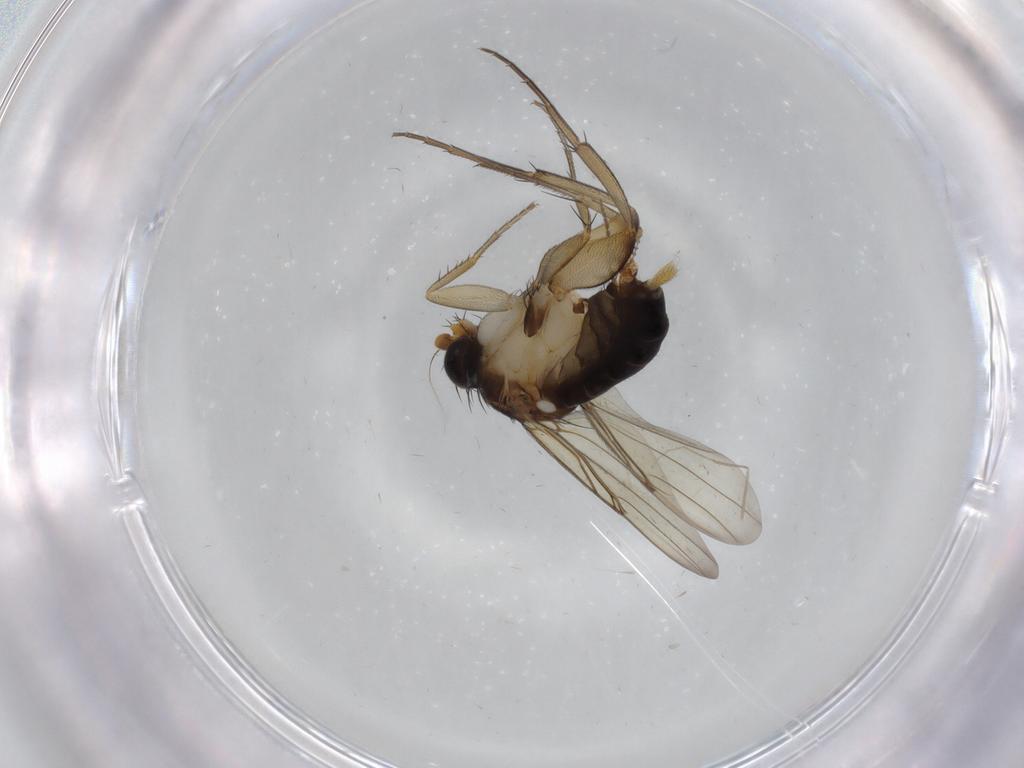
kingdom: Animalia
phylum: Arthropoda
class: Insecta
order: Diptera
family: Phoridae
